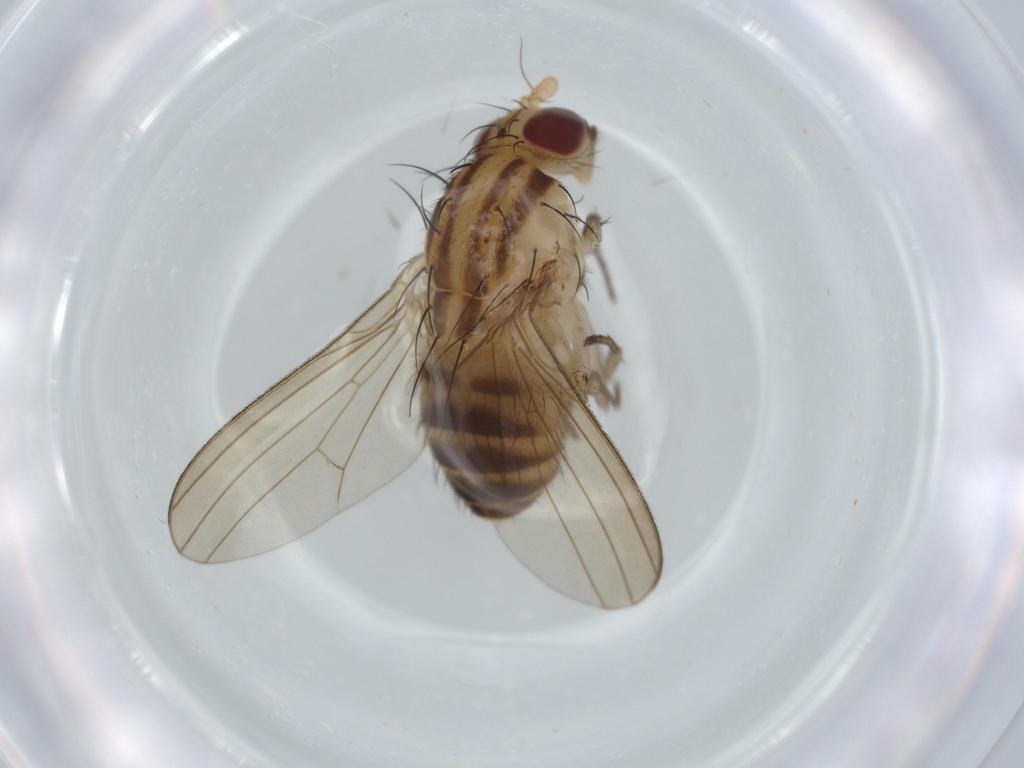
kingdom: Animalia
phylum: Arthropoda
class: Insecta
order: Diptera
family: Lauxaniidae
